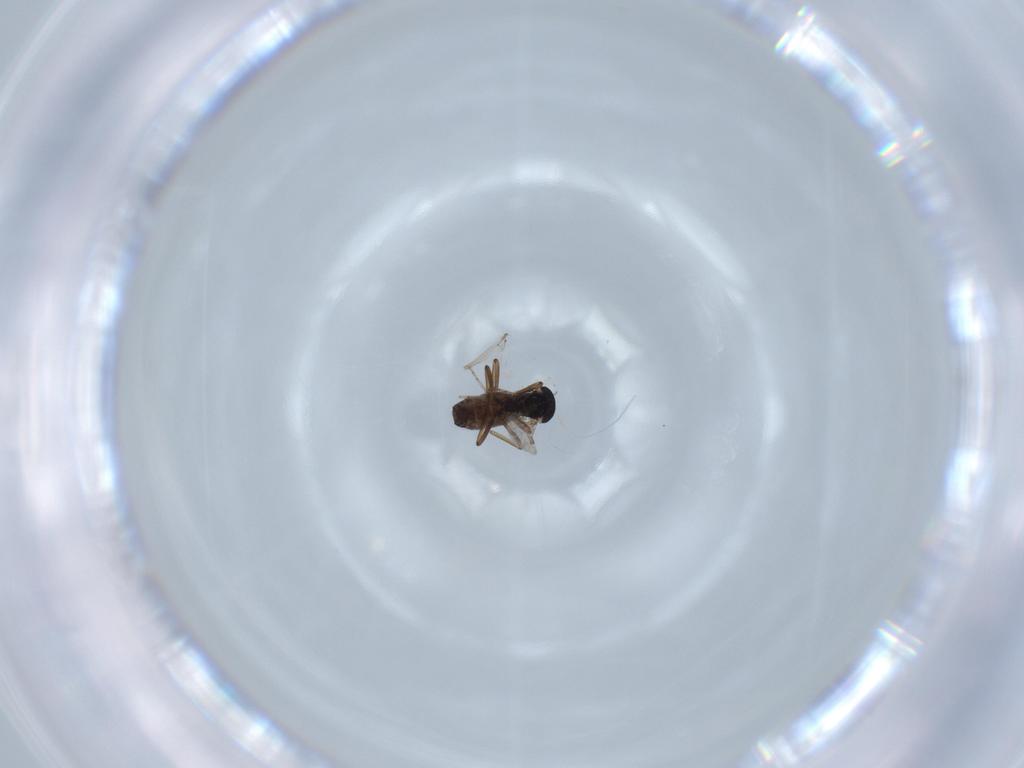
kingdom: Animalia
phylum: Arthropoda
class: Insecta
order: Diptera
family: Ceratopogonidae
